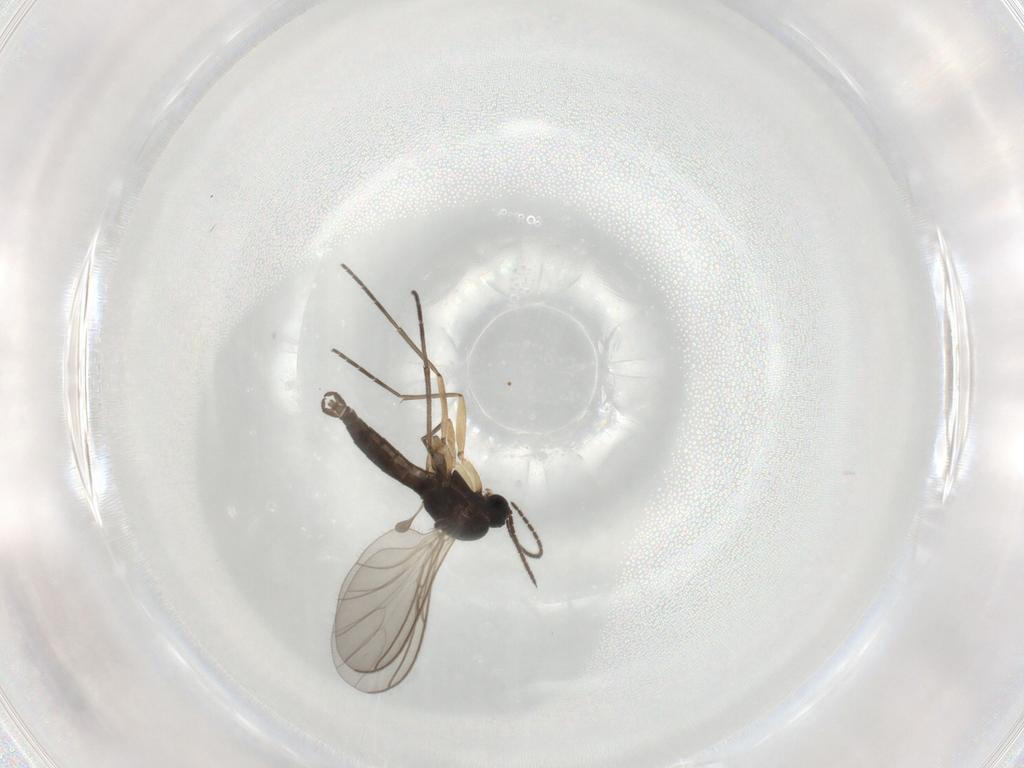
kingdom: Animalia
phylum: Arthropoda
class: Insecta
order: Diptera
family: Sciaridae
